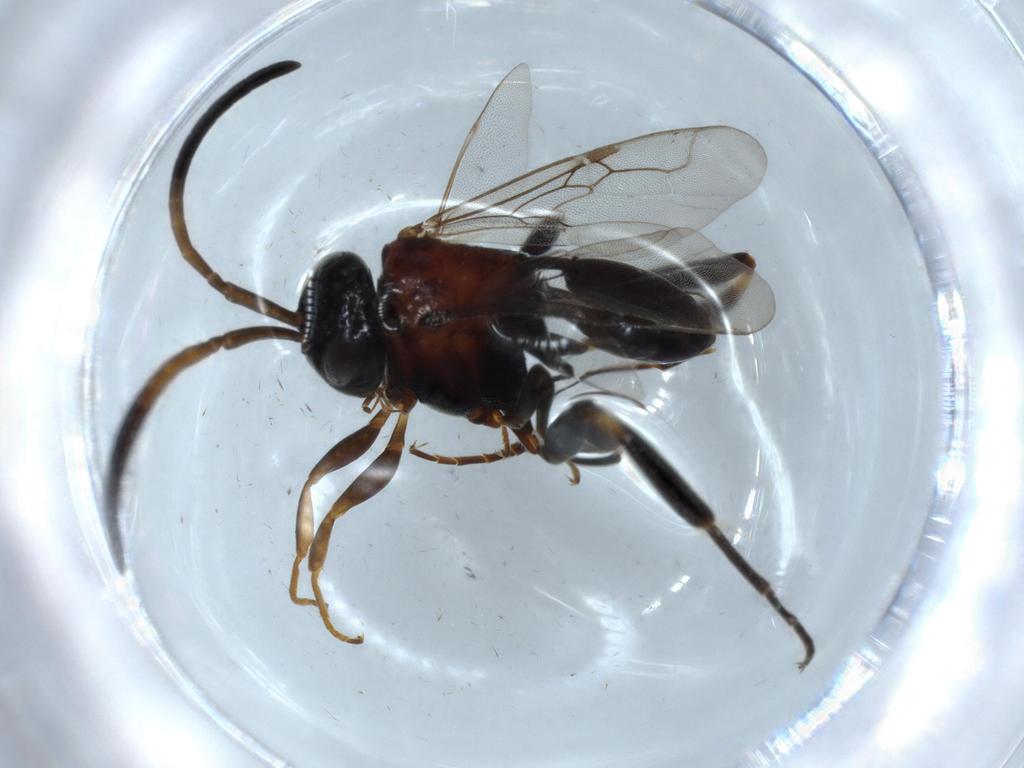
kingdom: Animalia
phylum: Arthropoda
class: Insecta
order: Hymenoptera
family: Evaniidae
